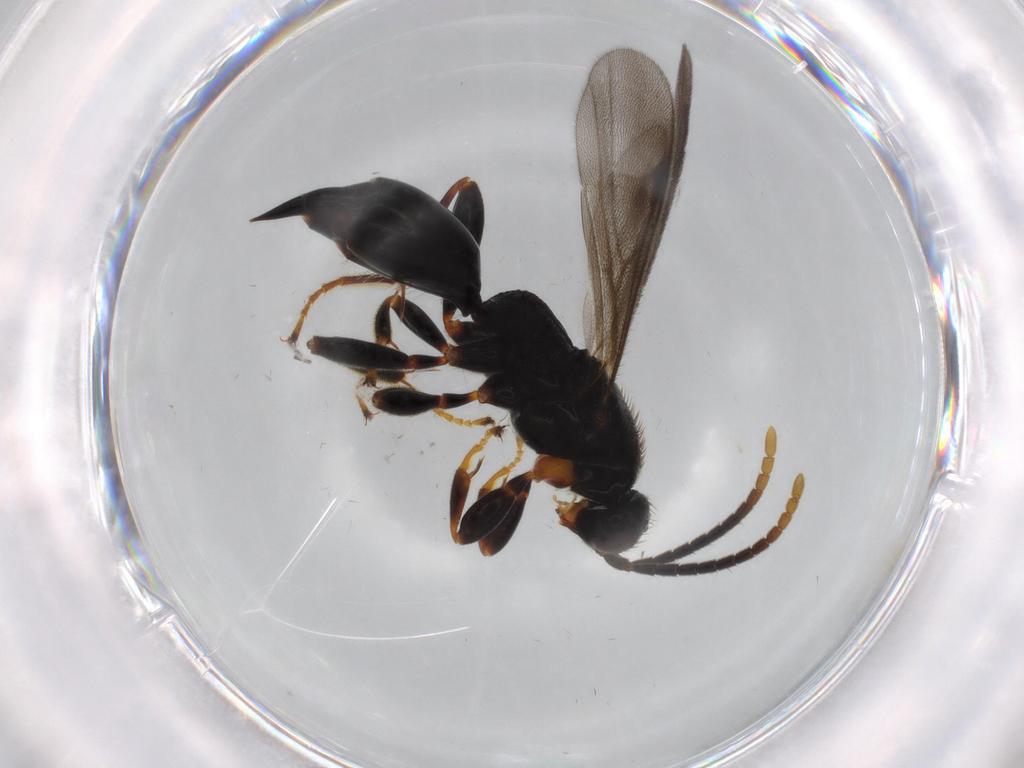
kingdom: Animalia
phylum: Arthropoda
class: Insecta
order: Hymenoptera
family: Proctotrupidae
